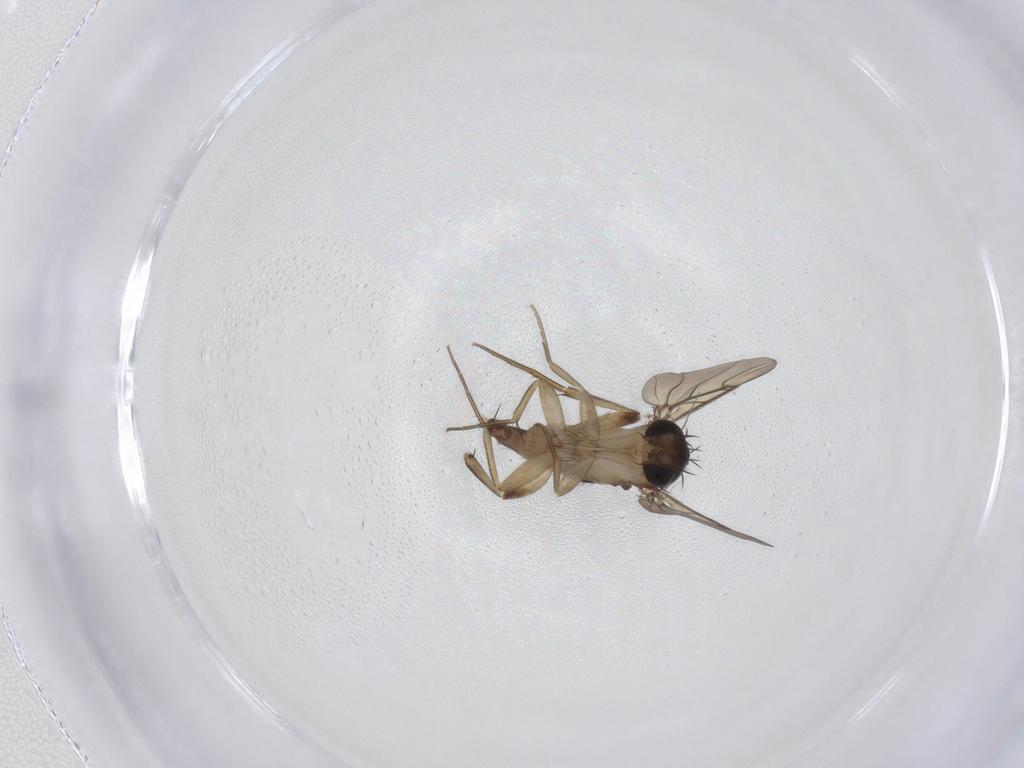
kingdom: Animalia
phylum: Arthropoda
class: Insecta
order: Diptera
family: Phoridae
